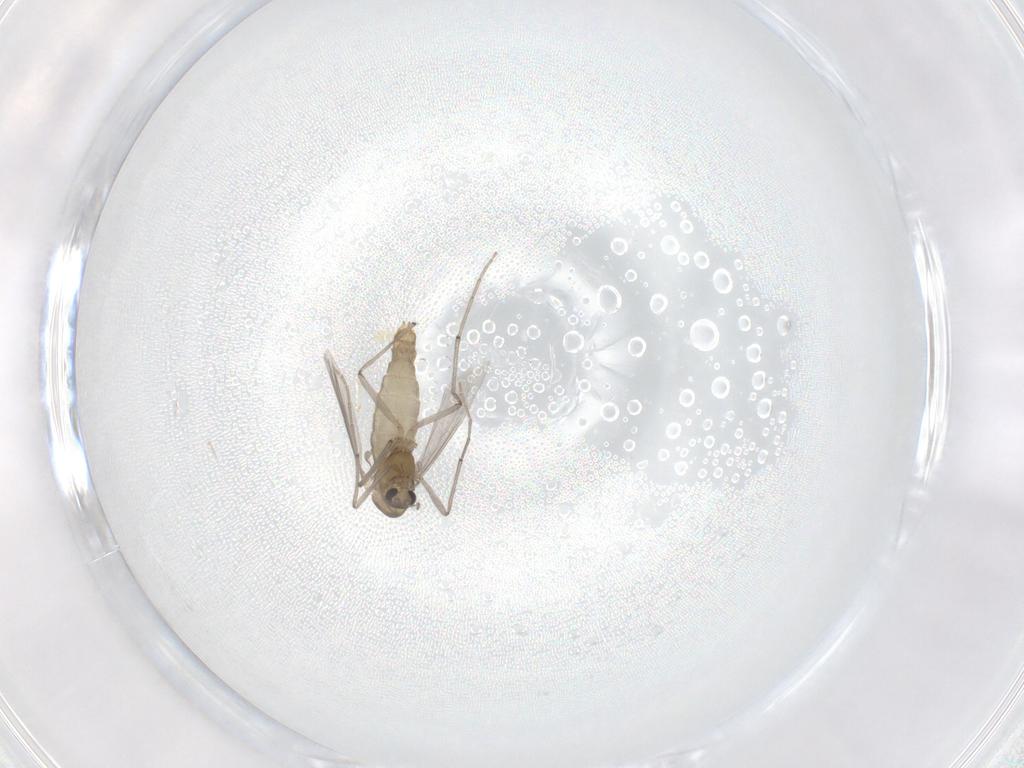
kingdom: Animalia
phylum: Arthropoda
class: Insecta
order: Diptera
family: Chironomidae
